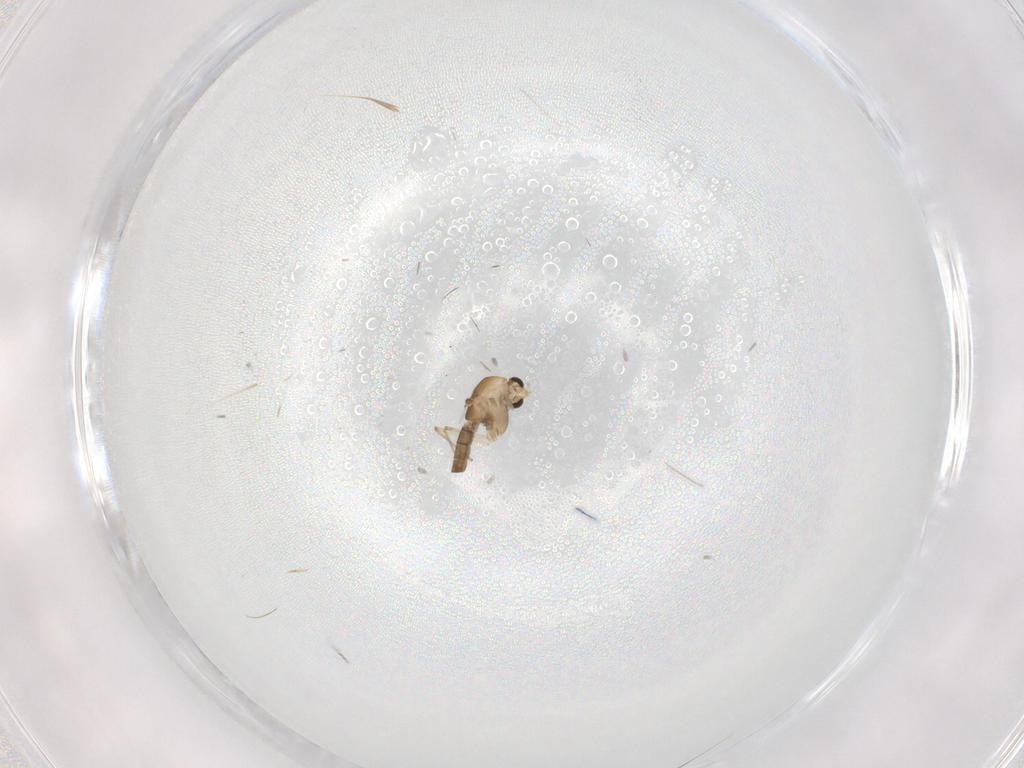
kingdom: Animalia
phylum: Arthropoda
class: Insecta
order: Diptera
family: Chironomidae
